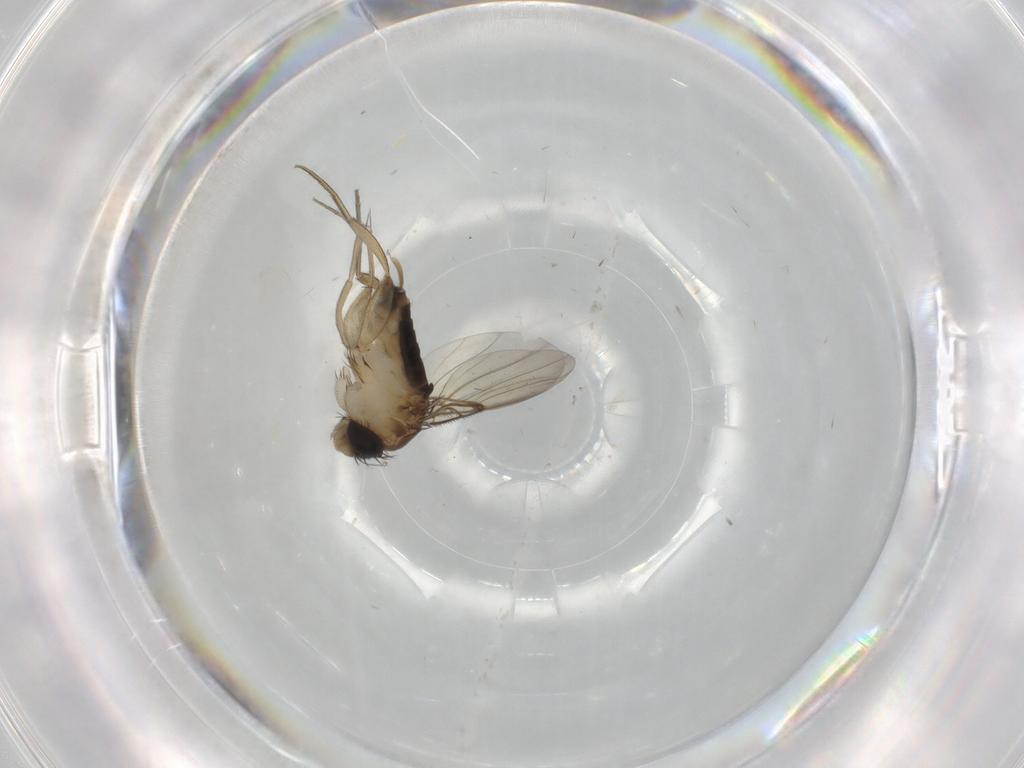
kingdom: Animalia
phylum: Arthropoda
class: Insecta
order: Diptera
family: Phoridae
